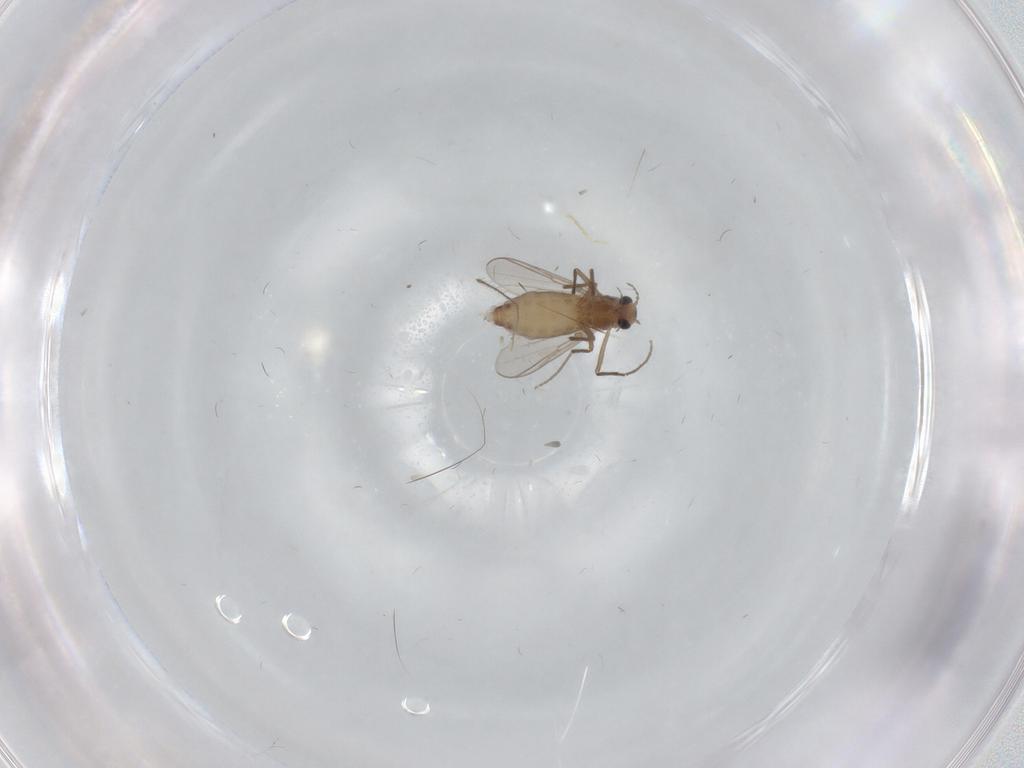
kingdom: Animalia
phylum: Arthropoda
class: Insecta
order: Diptera
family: Chironomidae
